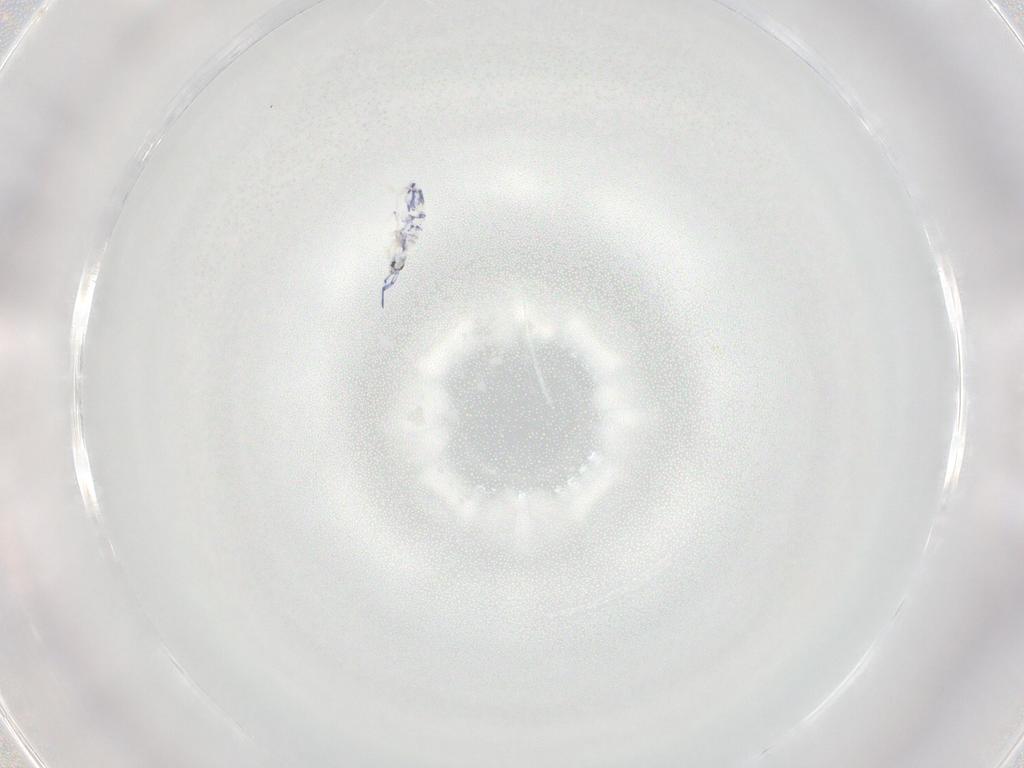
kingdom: Animalia
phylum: Arthropoda
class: Collembola
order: Entomobryomorpha
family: Entomobryidae
